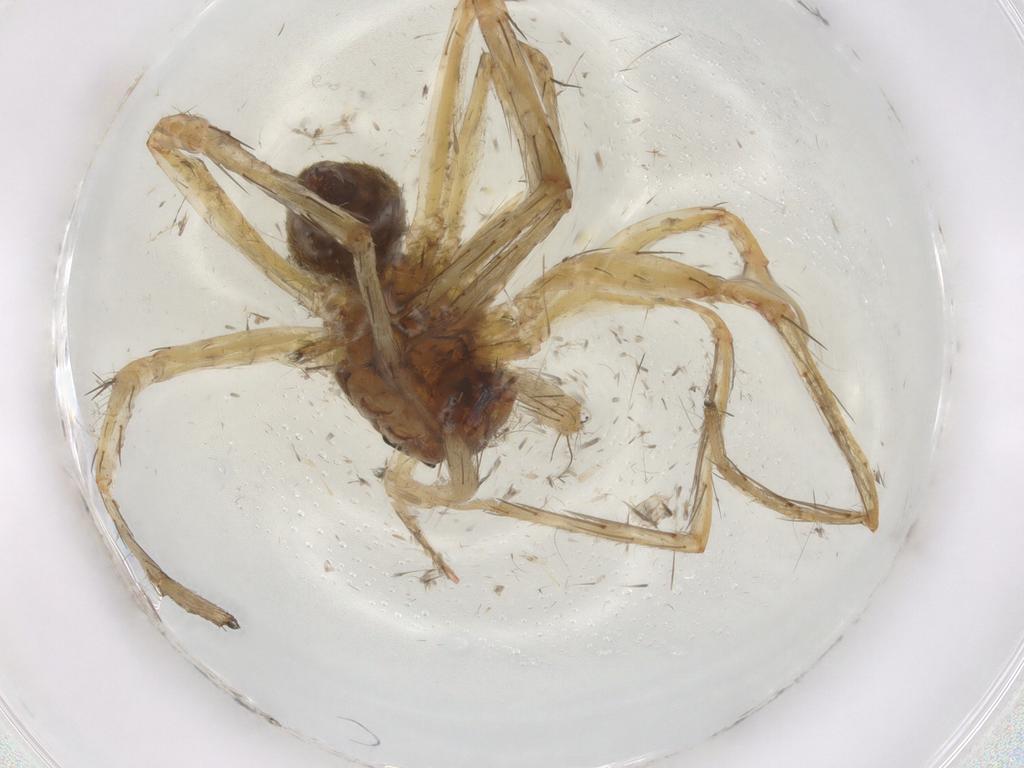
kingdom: Animalia
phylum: Arthropoda
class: Arachnida
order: Araneae
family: Ctenidae
